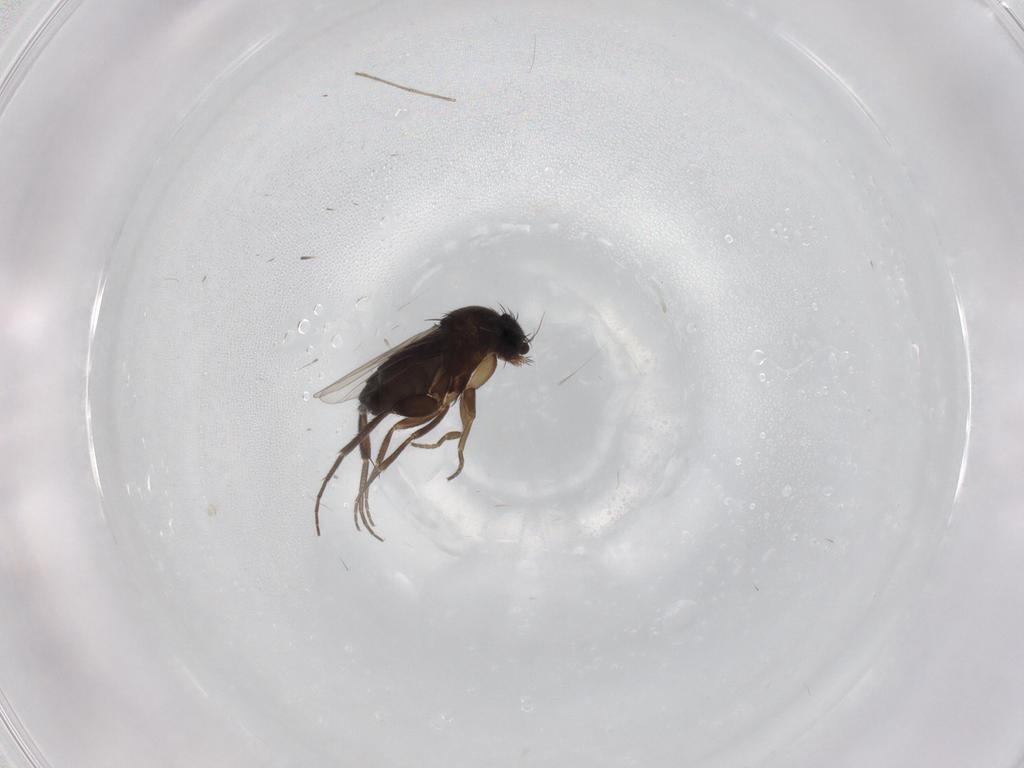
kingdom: Animalia
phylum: Arthropoda
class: Insecta
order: Diptera
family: Phoridae
